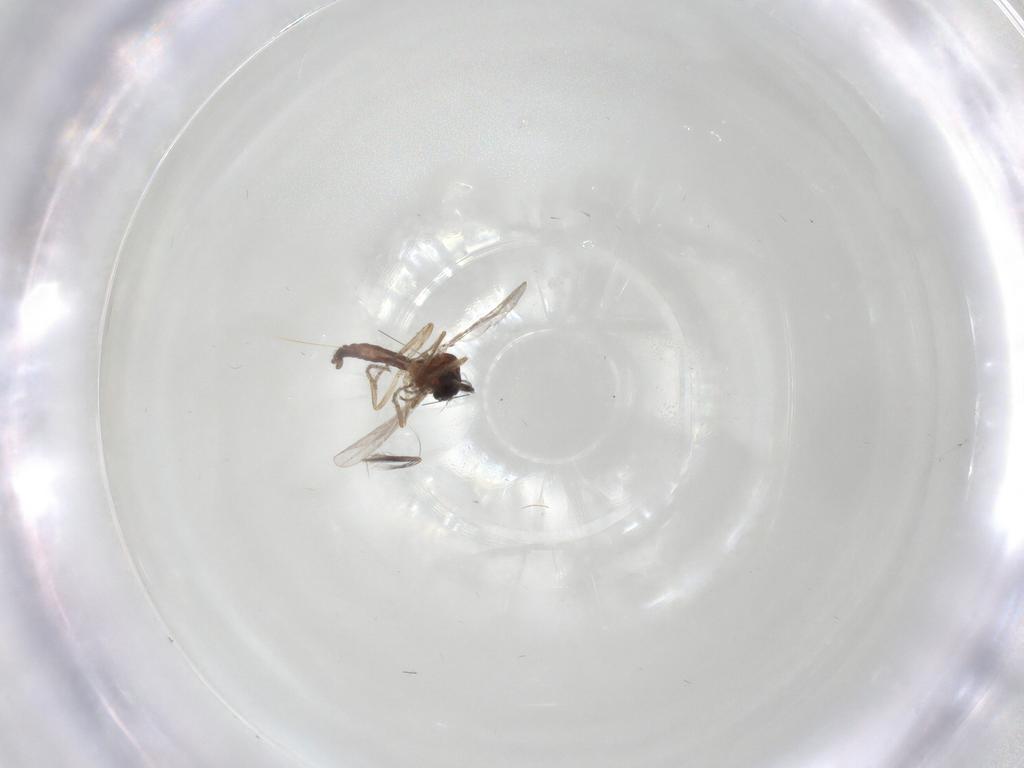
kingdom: Animalia
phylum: Arthropoda
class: Insecta
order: Diptera
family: Ceratopogonidae
